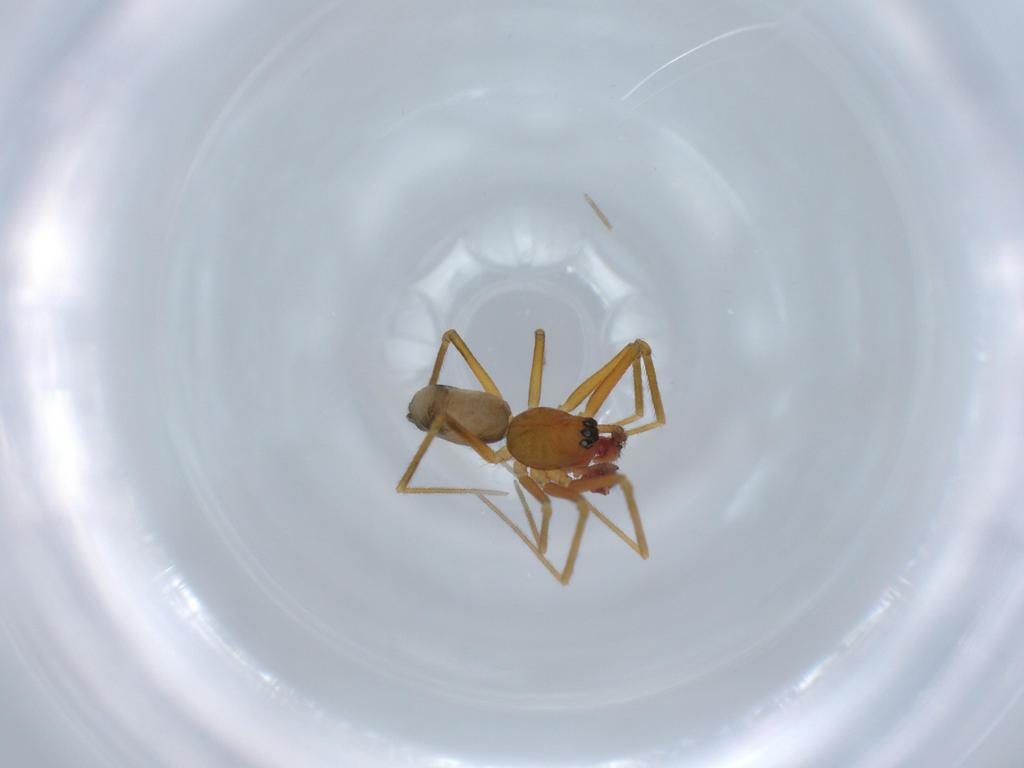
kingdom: Animalia
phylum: Arthropoda
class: Arachnida
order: Araneae
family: Linyphiidae
